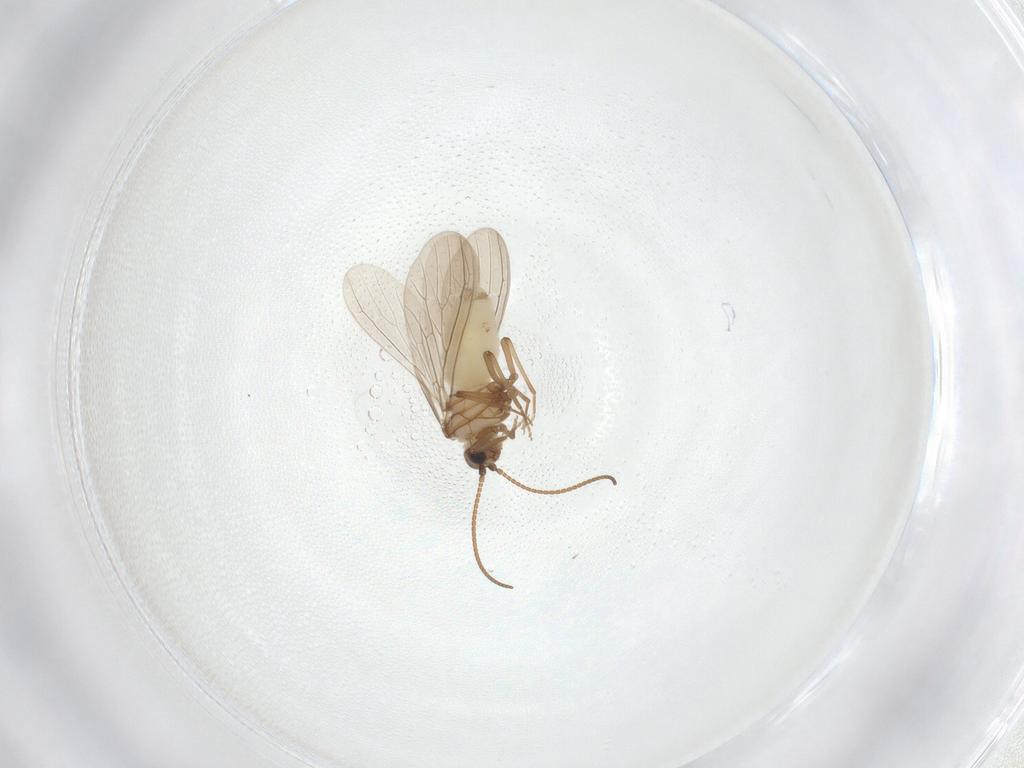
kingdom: Animalia
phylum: Arthropoda
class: Insecta
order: Neuroptera
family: Coniopterygidae
